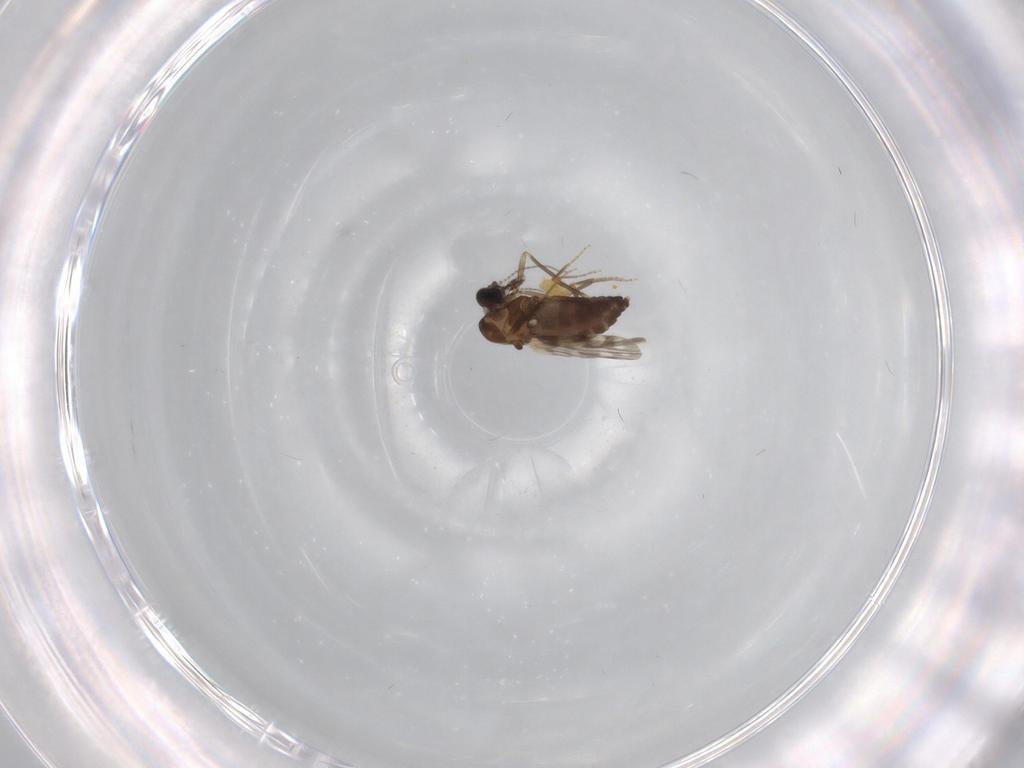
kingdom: Animalia
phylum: Arthropoda
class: Insecta
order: Diptera
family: Ceratopogonidae
